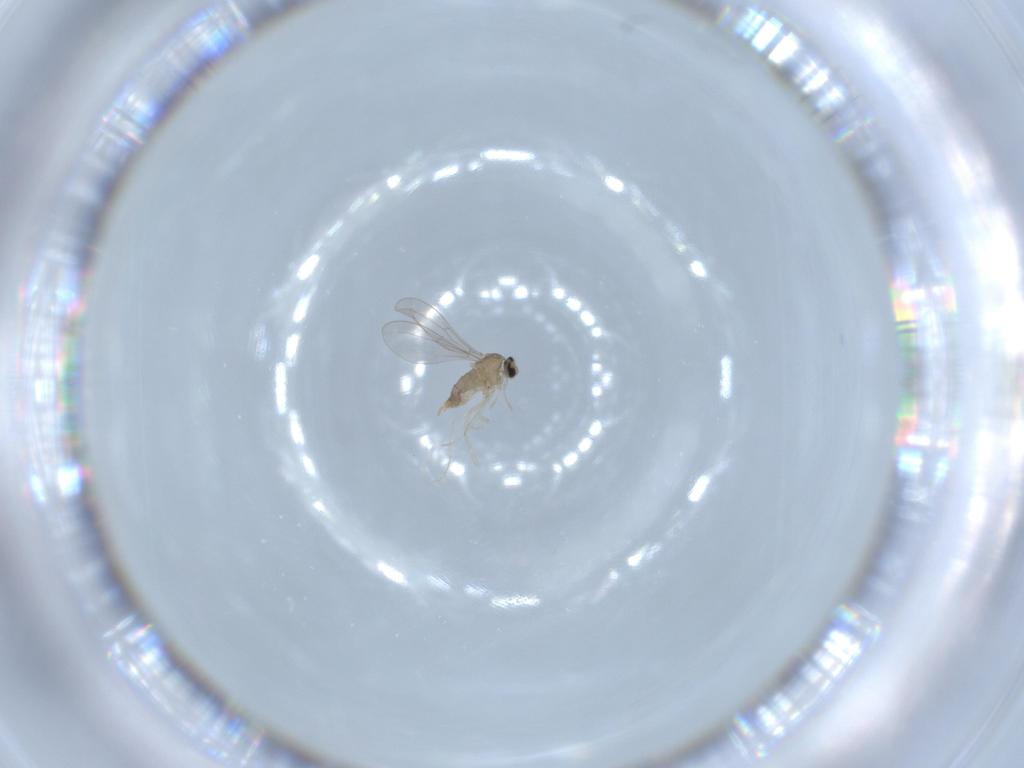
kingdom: Animalia
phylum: Arthropoda
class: Insecta
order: Diptera
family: Cecidomyiidae
